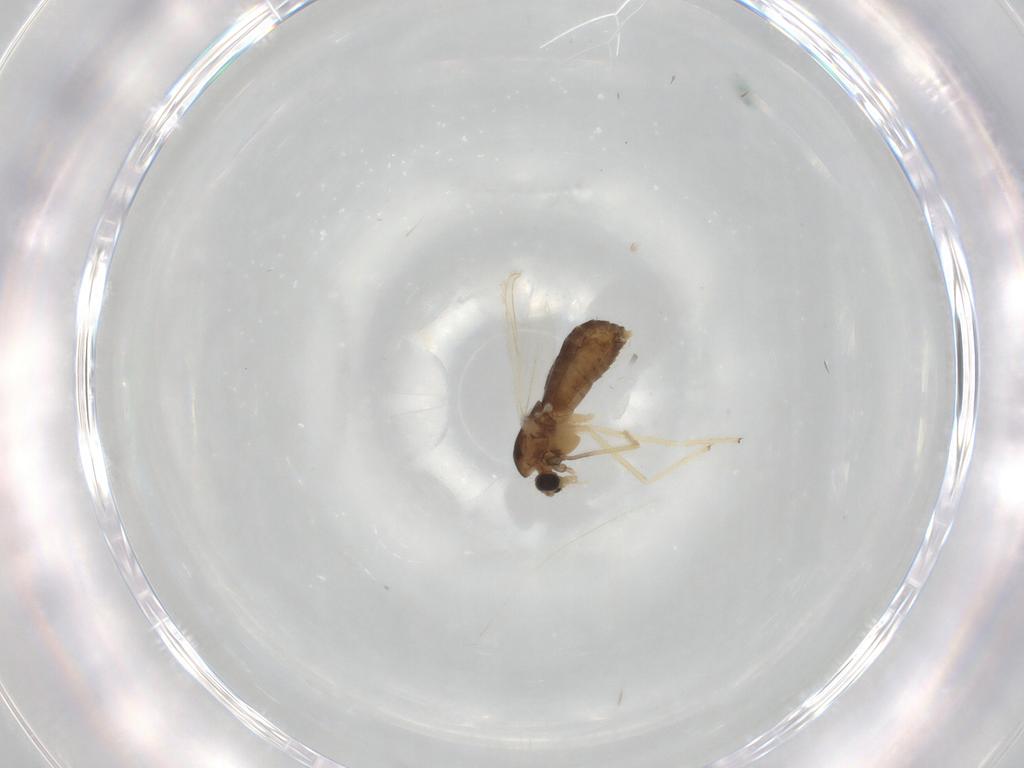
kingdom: Animalia
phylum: Arthropoda
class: Insecta
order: Diptera
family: Chironomidae
